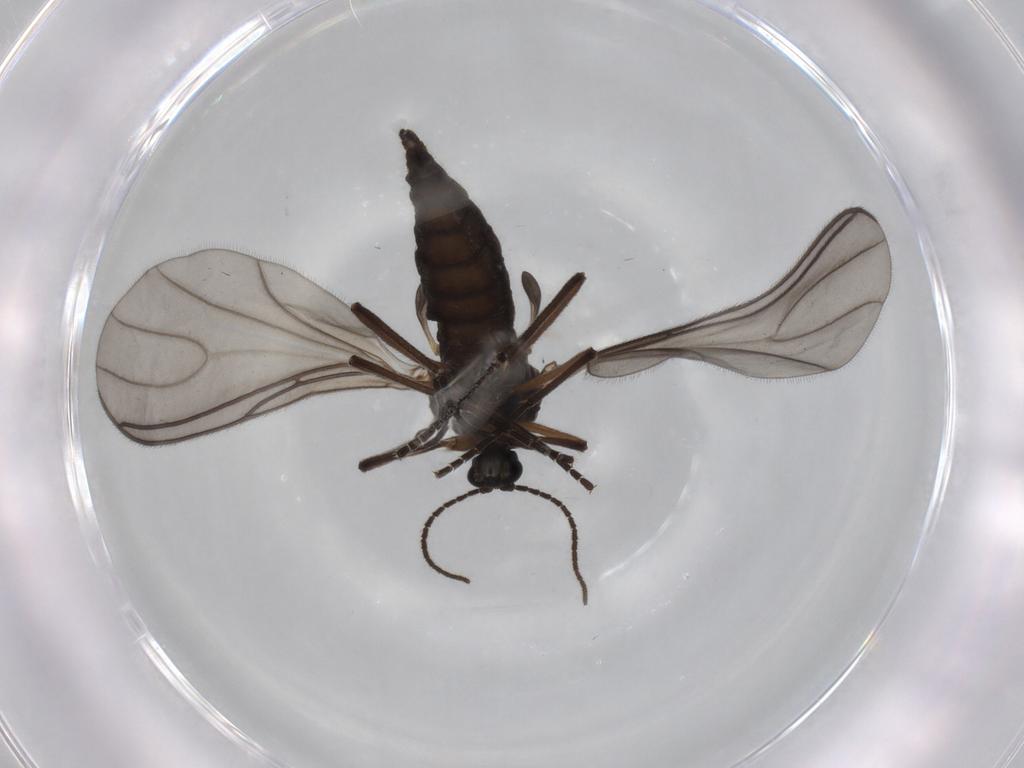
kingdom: Animalia
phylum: Arthropoda
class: Insecta
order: Diptera
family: Sciaridae
